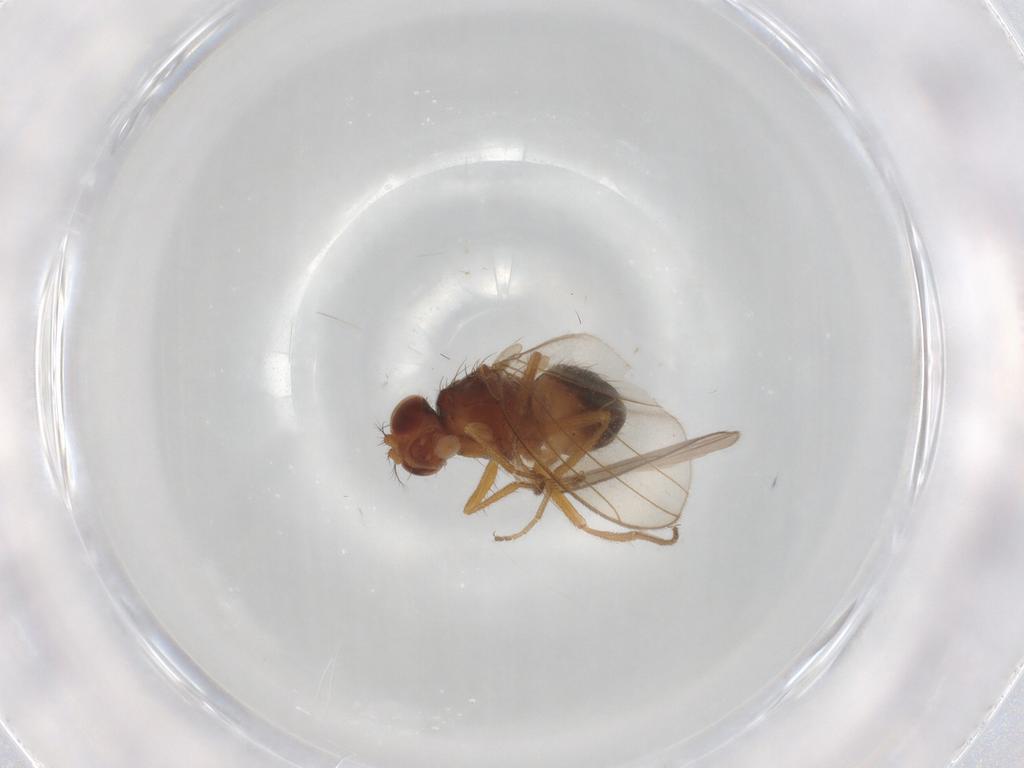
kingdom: Animalia
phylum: Arthropoda
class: Insecta
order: Diptera
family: Drosophilidae
